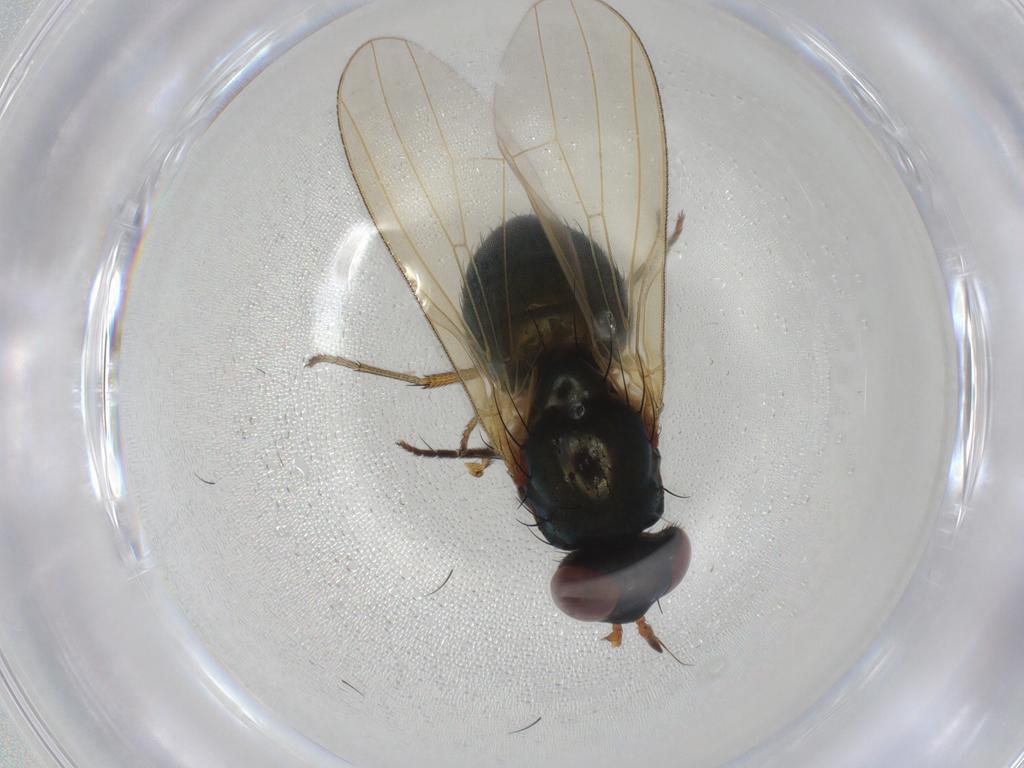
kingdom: Animalia
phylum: Arthropoda
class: Insecta
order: Diptera
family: Lauxaniidae
